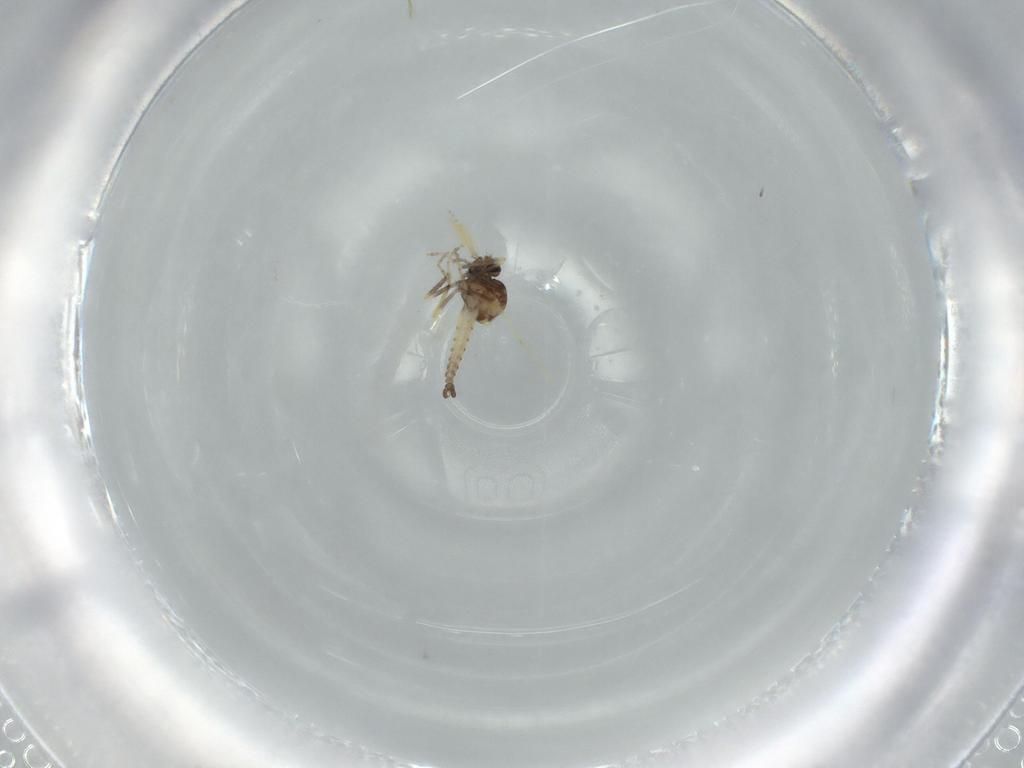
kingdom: Animalia
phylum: Arthropoda
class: Insecta
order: Diptera
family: Ceratopogonidae
